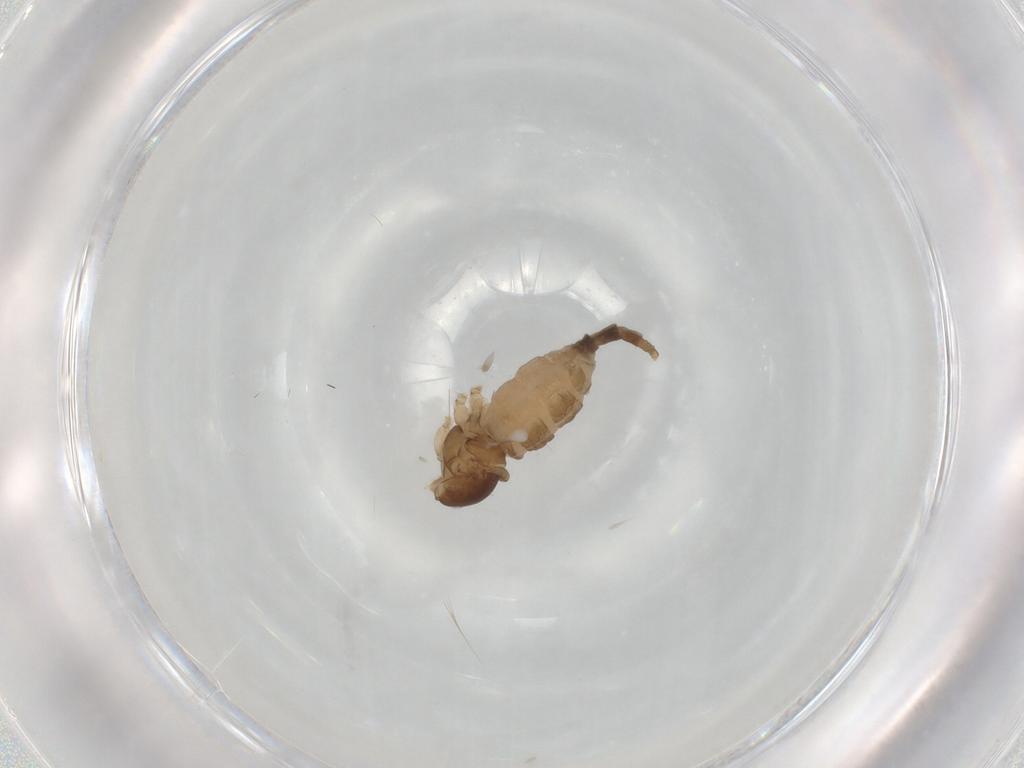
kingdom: Animalia
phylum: Arthropoda
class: Insecta
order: Diptera
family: Cecidomyiidae
